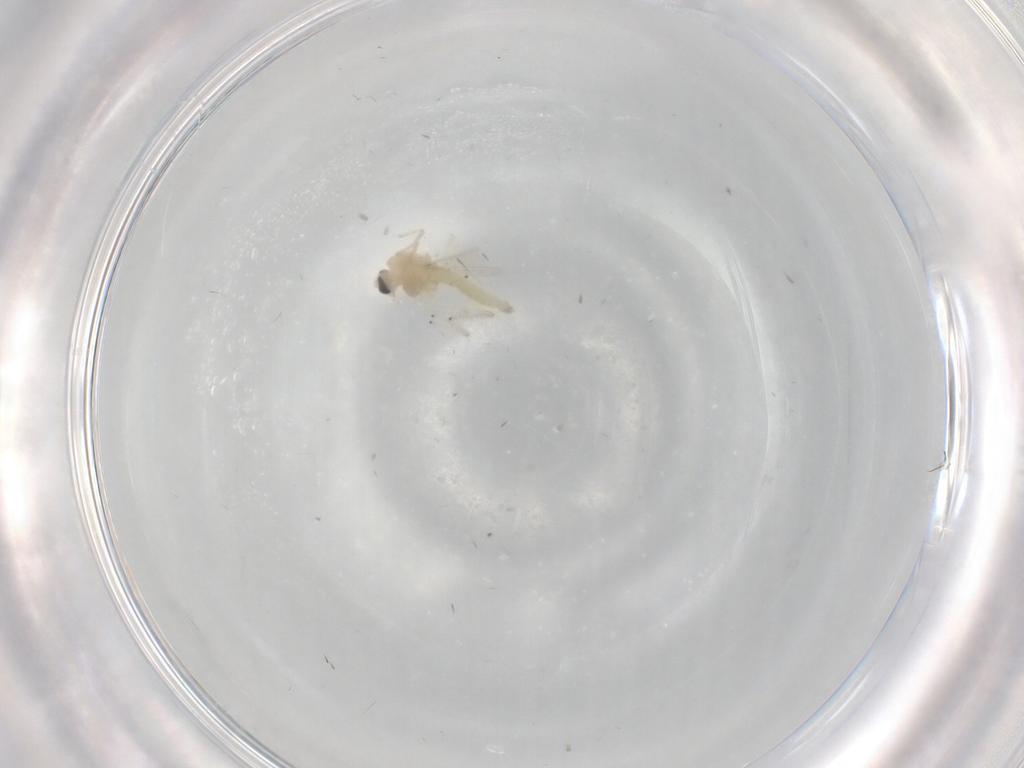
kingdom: Animalia
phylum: Arthropoda
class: Insecta
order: Diptera
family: Chironomidae
